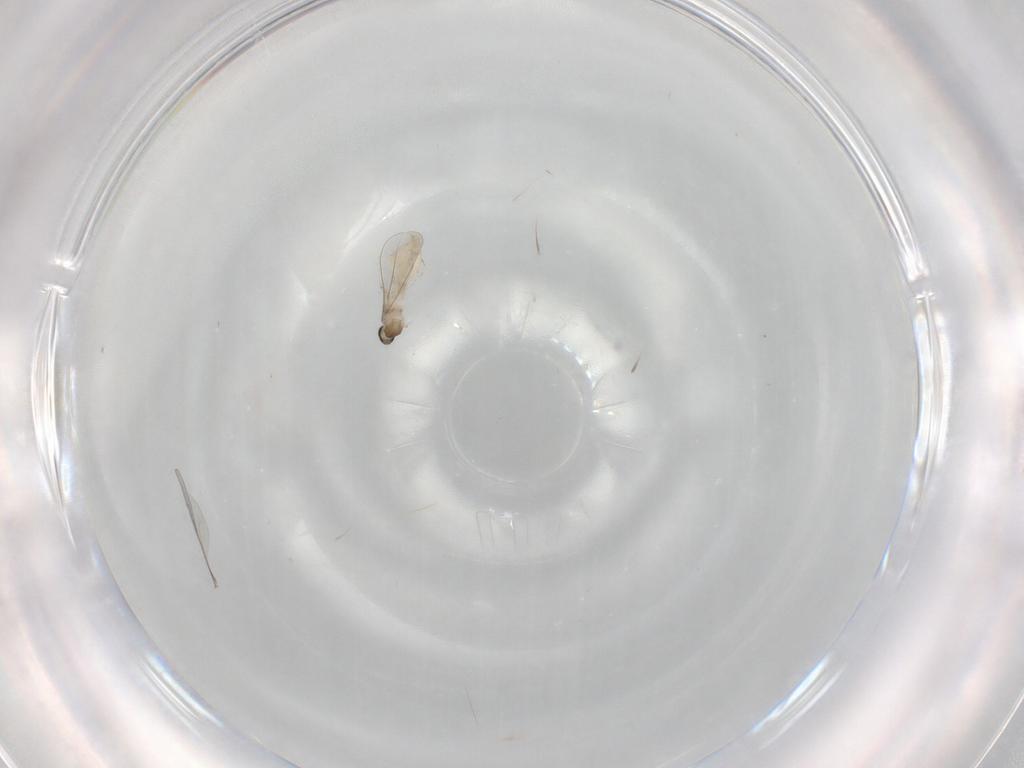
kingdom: Animalia
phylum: Arthropoda
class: Insecta
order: Diptera
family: Cecidomyiidae
